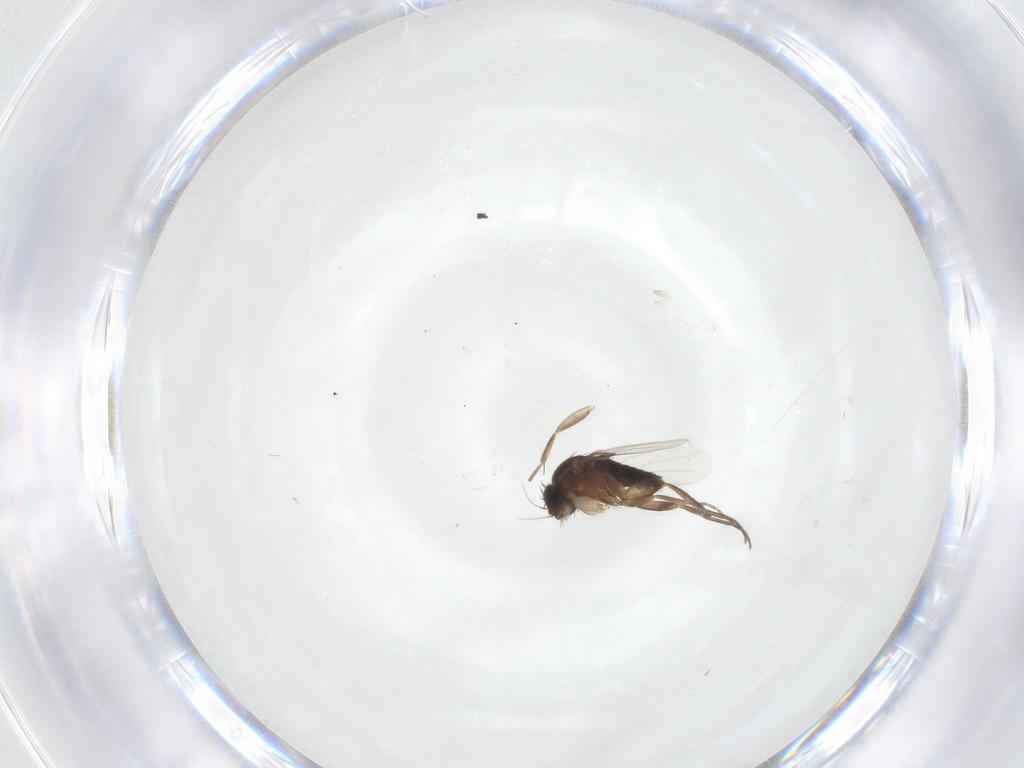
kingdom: Animalia
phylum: Arthropoda
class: Insecta
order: Diptera
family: Phoridae
